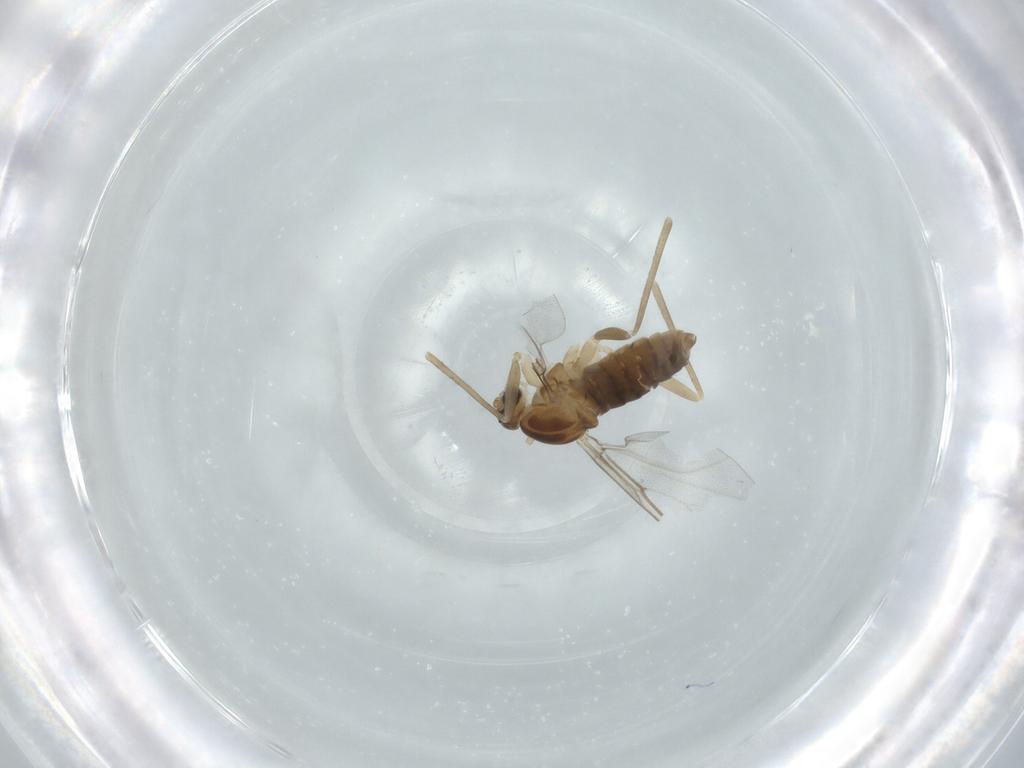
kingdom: Animalia
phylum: Arthropoda
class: Insecta
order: Diptera
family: Cecidomyiidae
